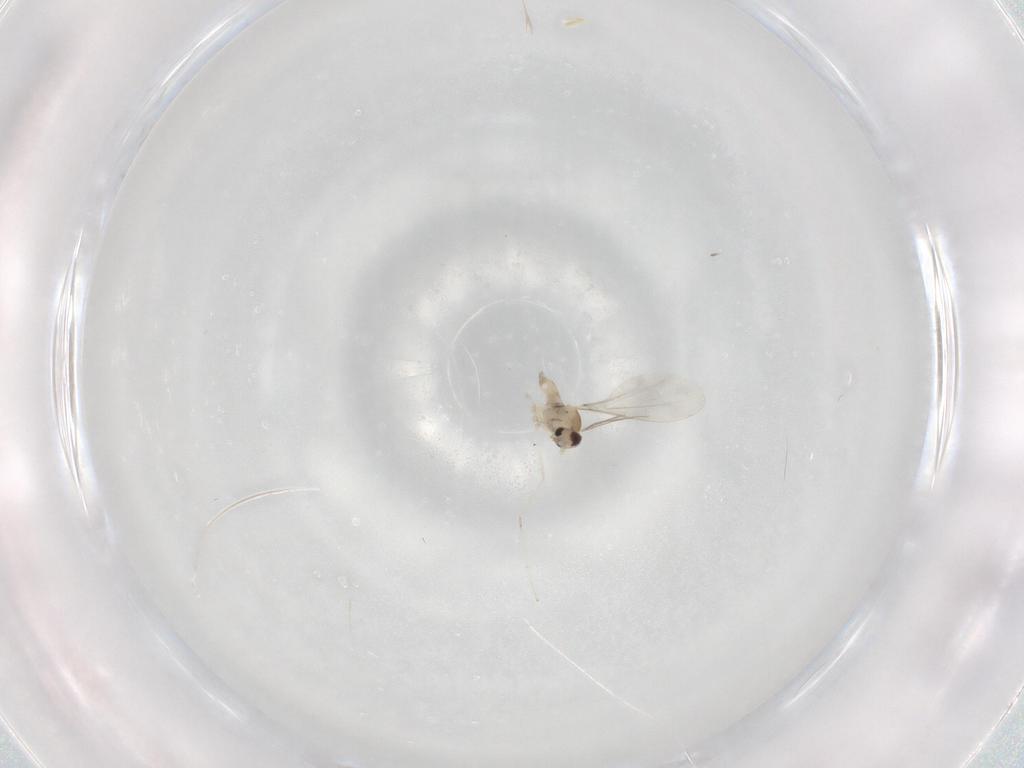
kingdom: Animalia
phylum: Arthropoda
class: Insecta
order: Diptera
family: Cecidomyiidae
